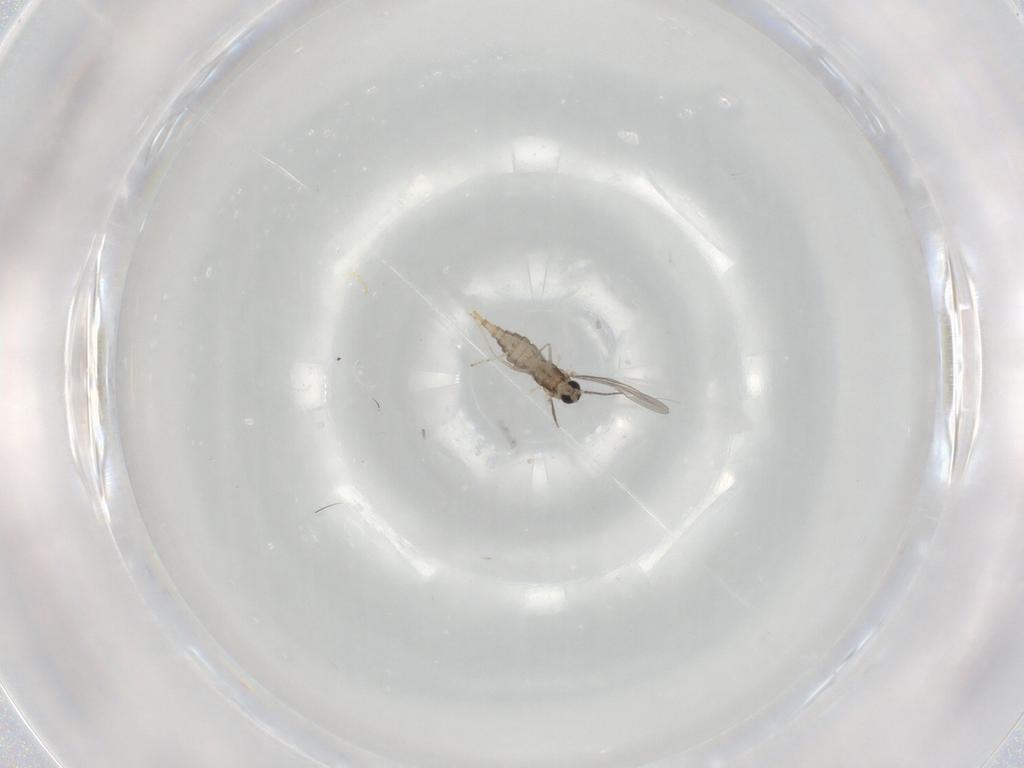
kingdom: Animalia
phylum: Arthropoda
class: Insecta
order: Diptera
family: Cecidomyiidae
